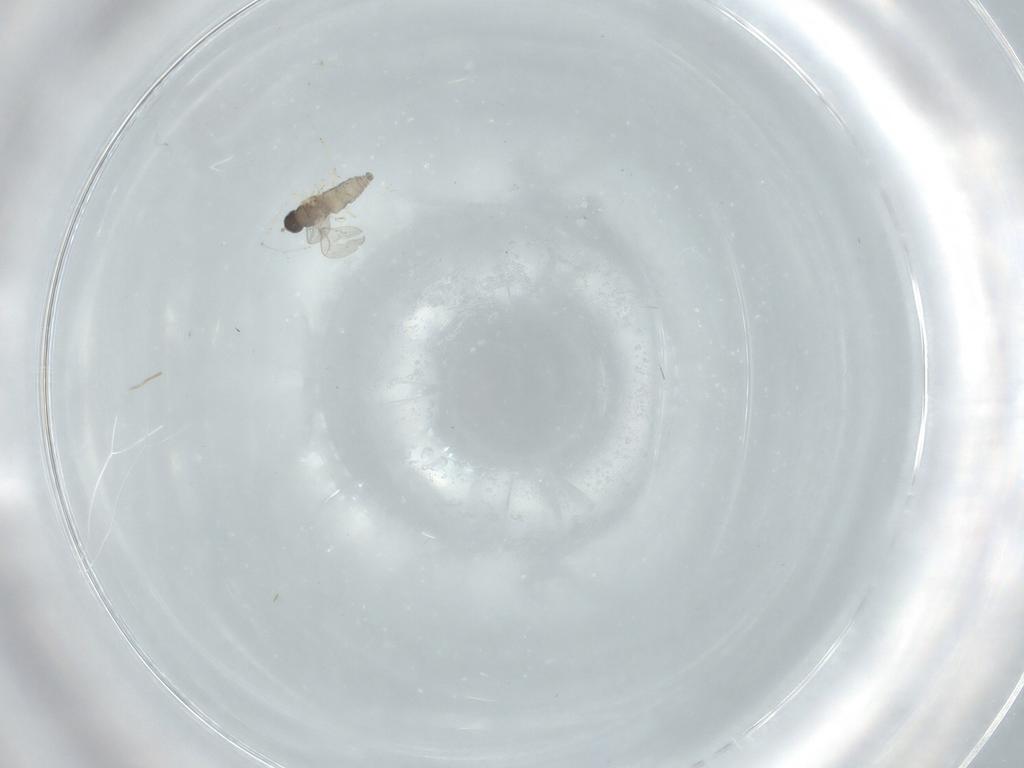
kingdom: Animalia
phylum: Arthropoda
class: Insecta
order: Diptera
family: Cecidomyiidae
